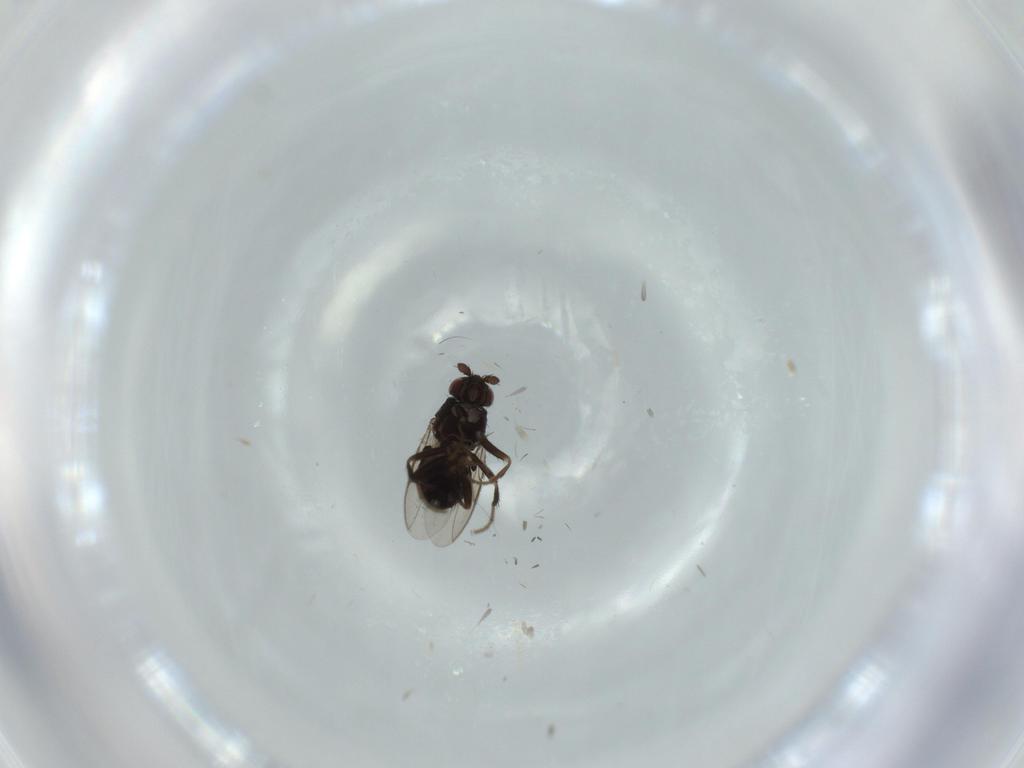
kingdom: Animalia
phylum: Arthropoda
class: Insecta
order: Diptera
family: Sphaeroceridae
